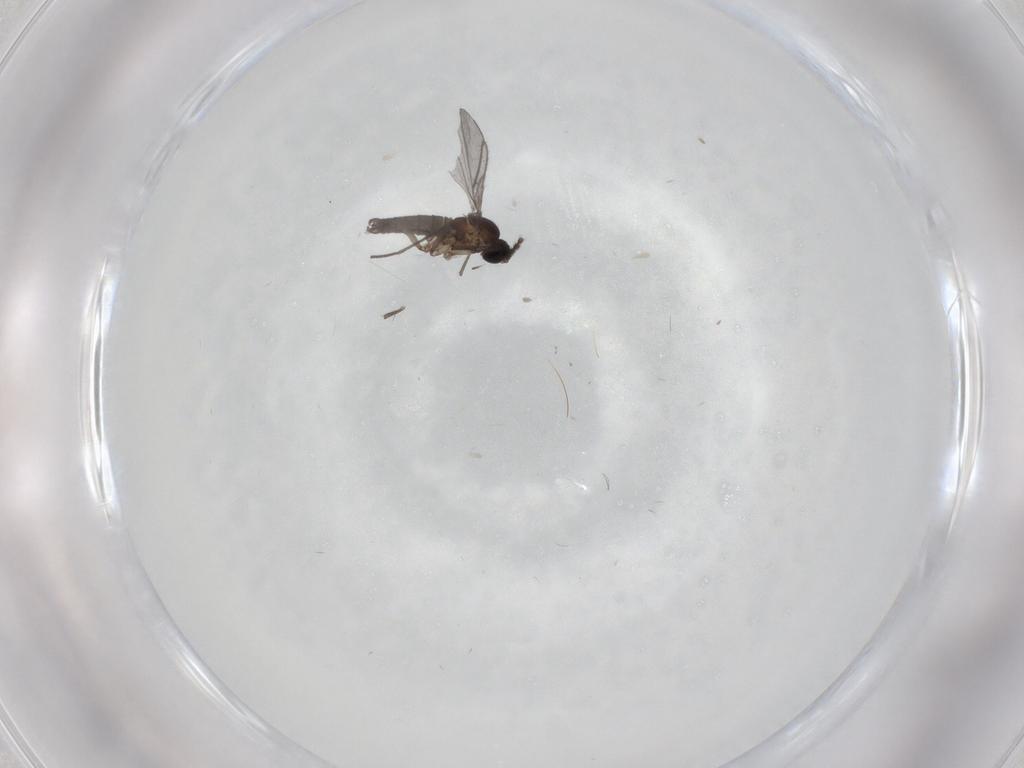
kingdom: Animalia
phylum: Arthropoda
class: Insecta
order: Diptera
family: Sciaridae
